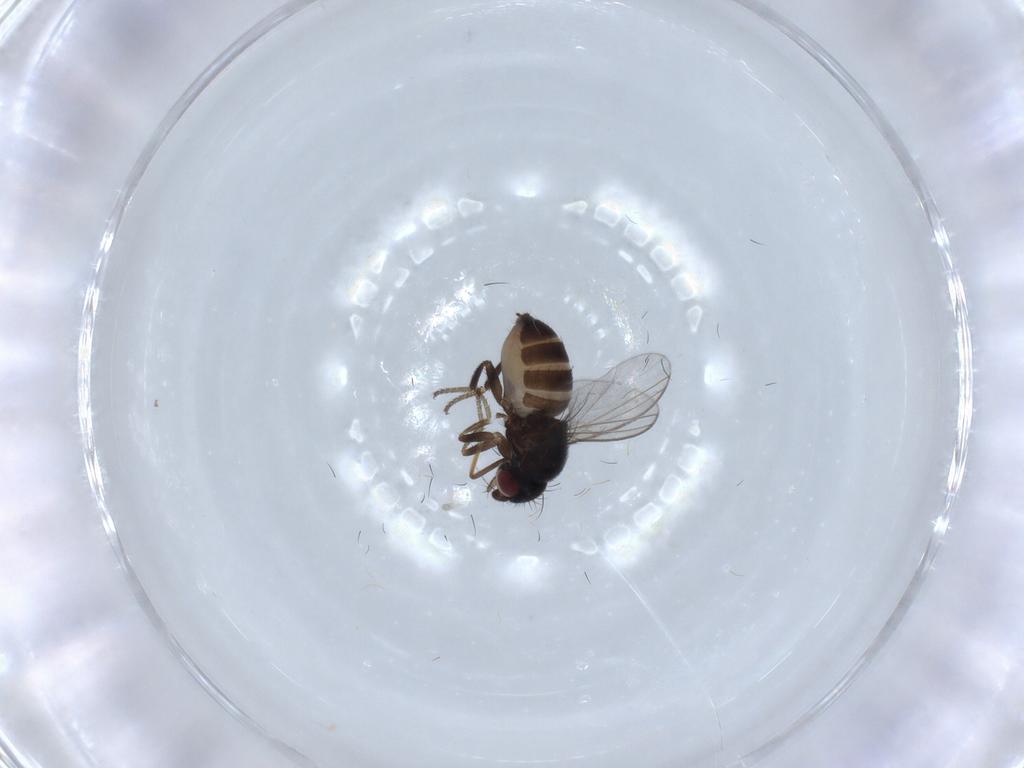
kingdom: Animalia
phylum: Arthropoda
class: Insecta
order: Diptera
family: Milichiidae
